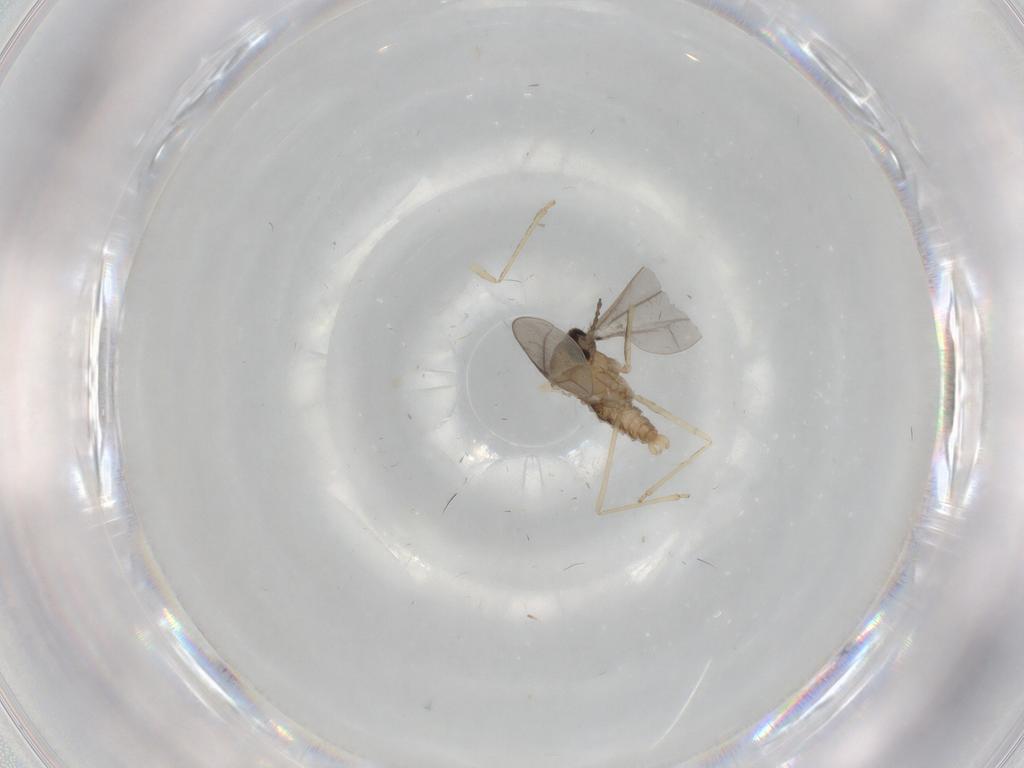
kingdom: Animalia
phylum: Arthropoda
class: Insecta
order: Diptera
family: Cecidomyiidae
